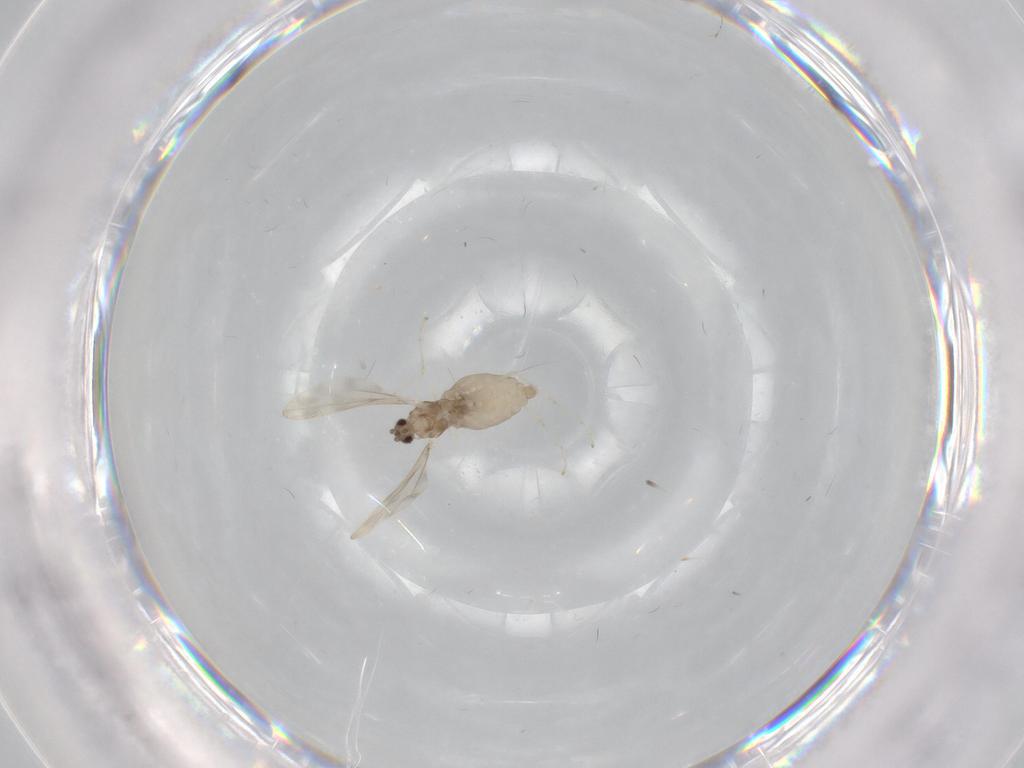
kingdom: Animalia
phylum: Arthropoda
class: Insecta
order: Diptera
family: Cecidomyiidae
